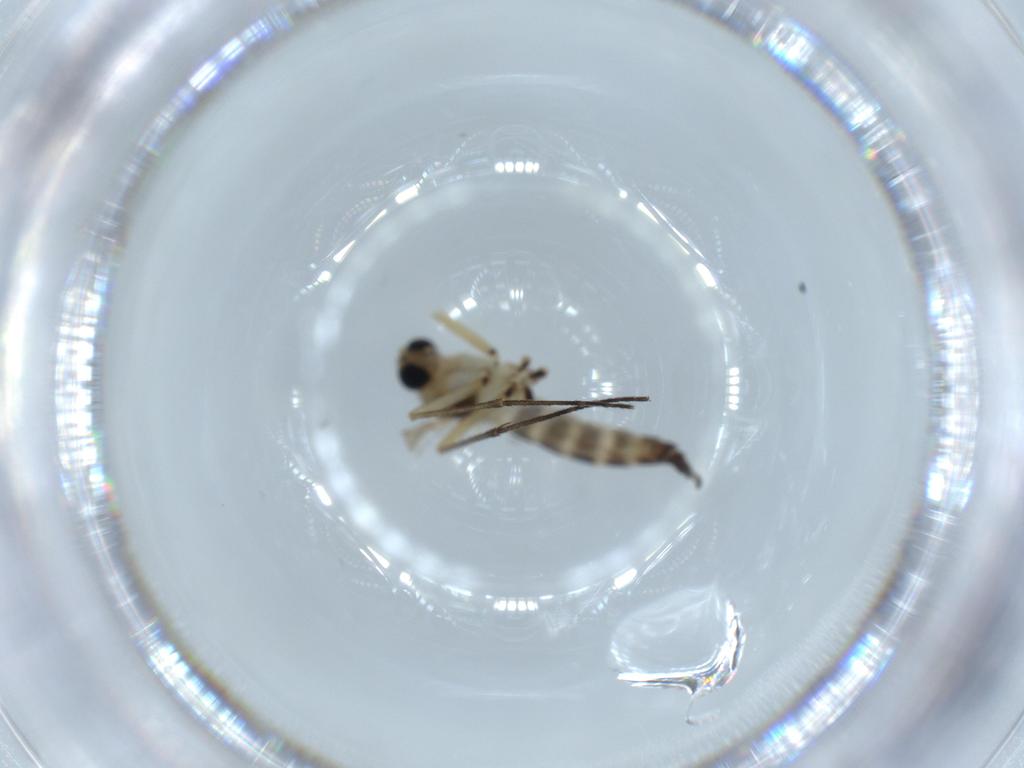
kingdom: Animalia
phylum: Arthropoda
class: Insecta
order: Diptera
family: Sciaridae
